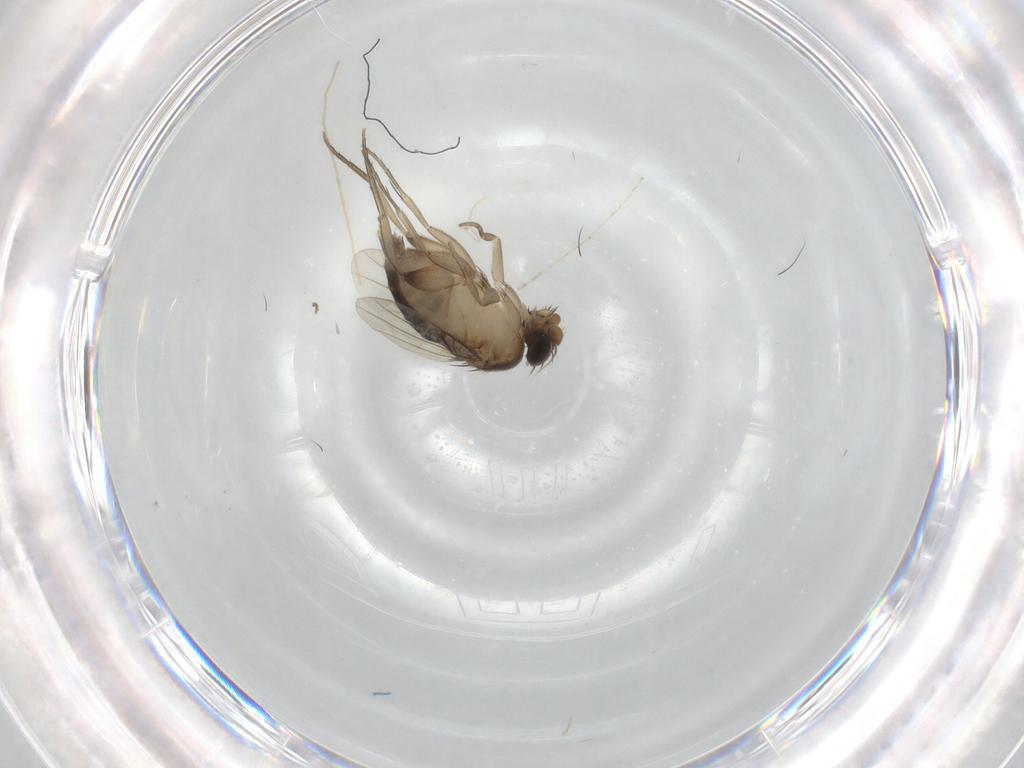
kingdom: Animalia
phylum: Arthropoda
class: Insecta
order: Diptera
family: Phoridae
